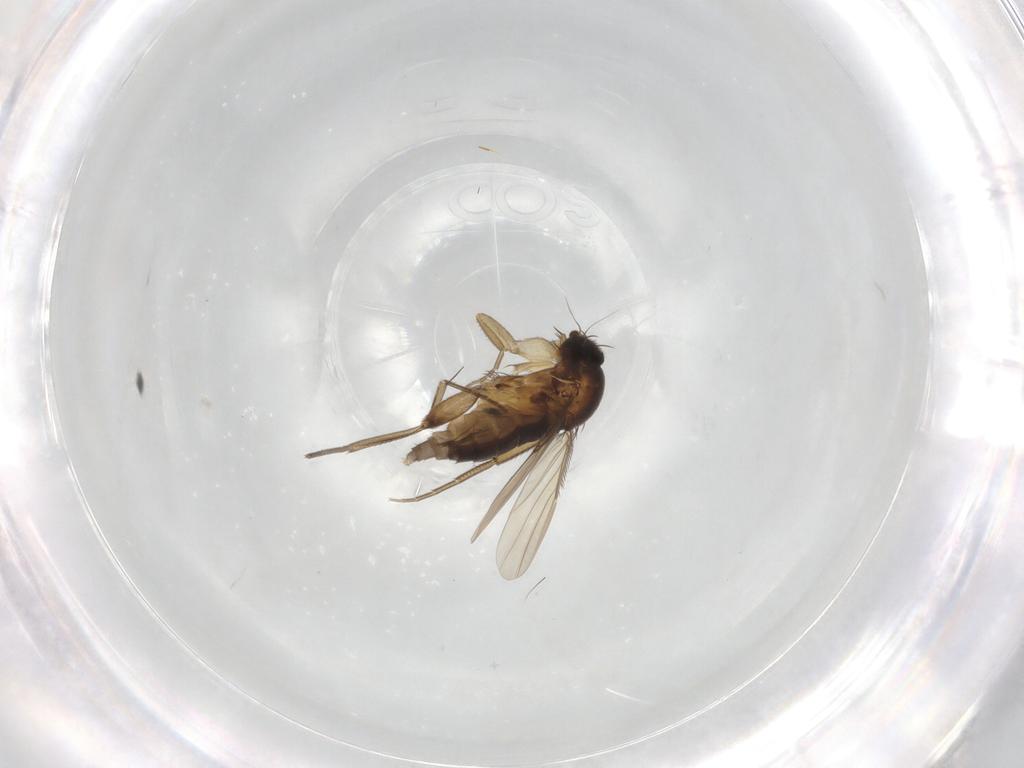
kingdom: Animalia
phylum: Arthropoda
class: Insecta
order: Diptera
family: Phoridae
